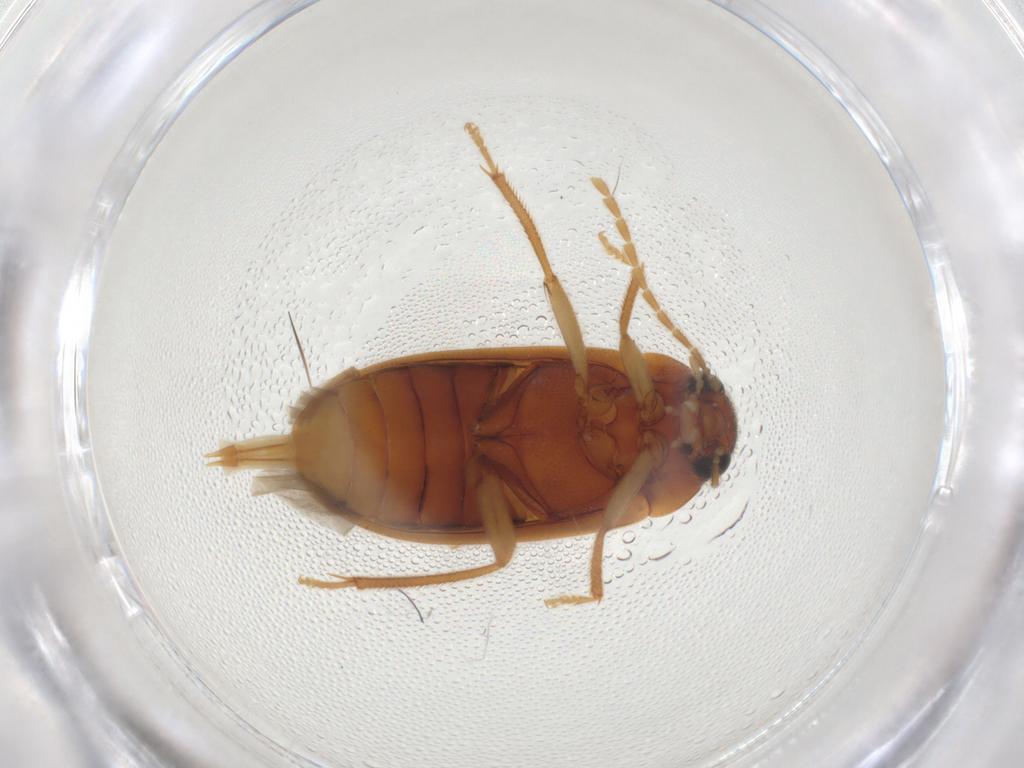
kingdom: Animalia
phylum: Arthropoda
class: Insecta
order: Coleoptera
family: Ptilodactylidae
